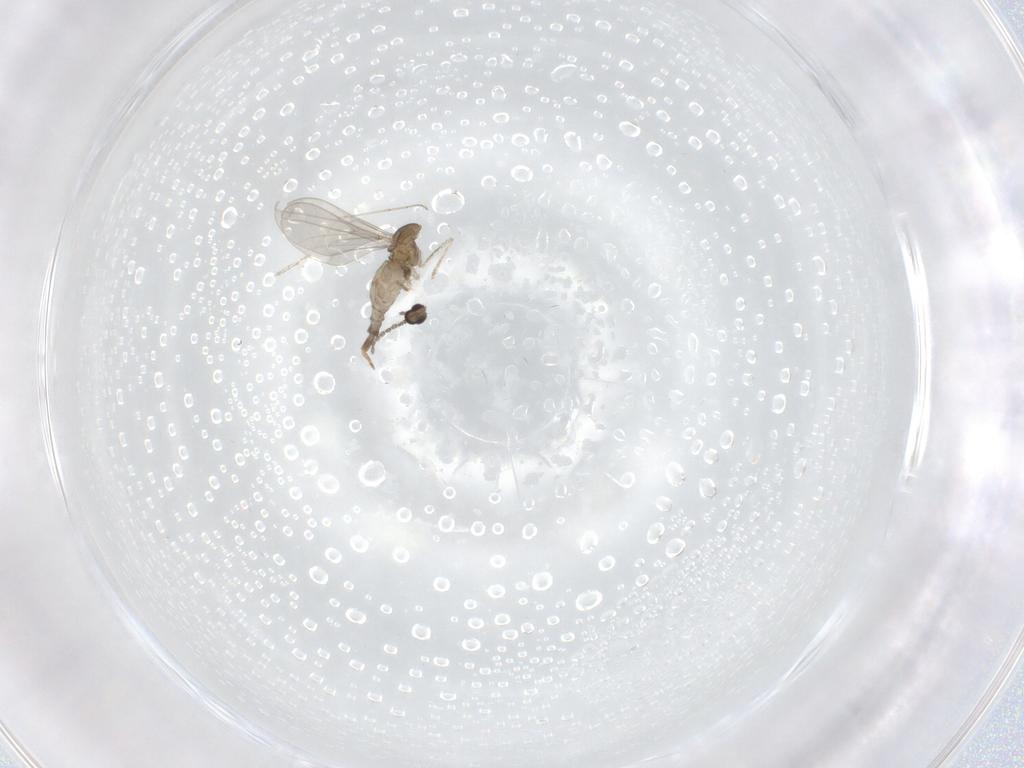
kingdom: Animalia
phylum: Arthropoda
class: Insecta
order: Diptera
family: Cecidomyiidae
